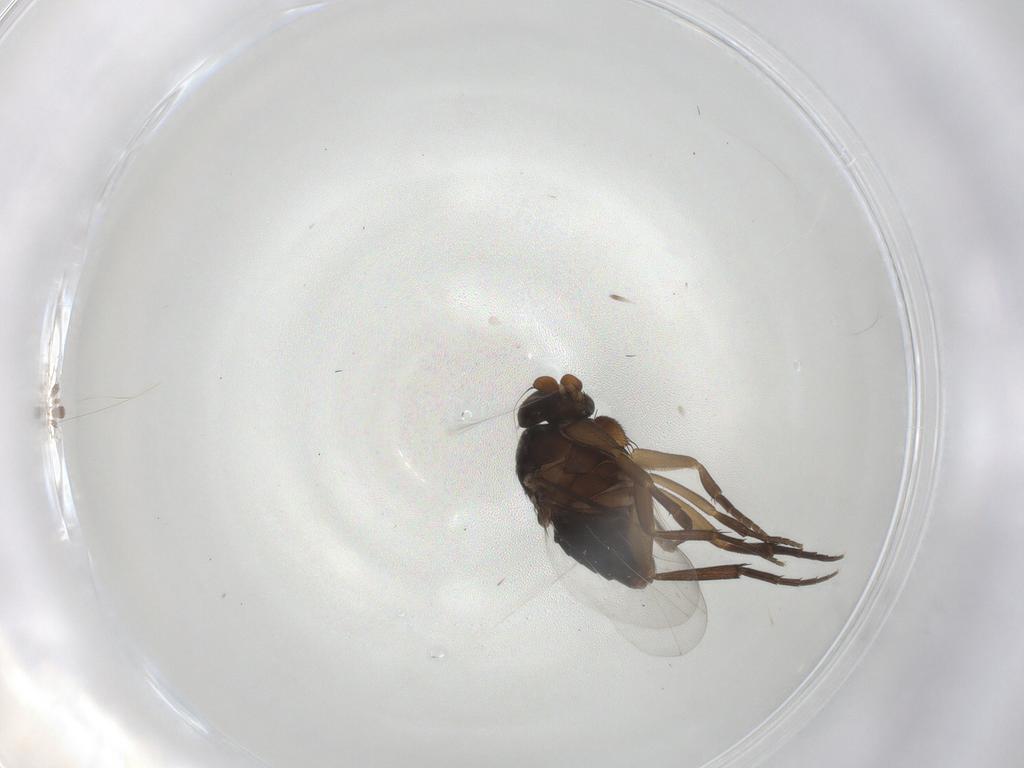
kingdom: Animalia
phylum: Arthropoda
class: Insecta
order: Diptera
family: Phoridae
